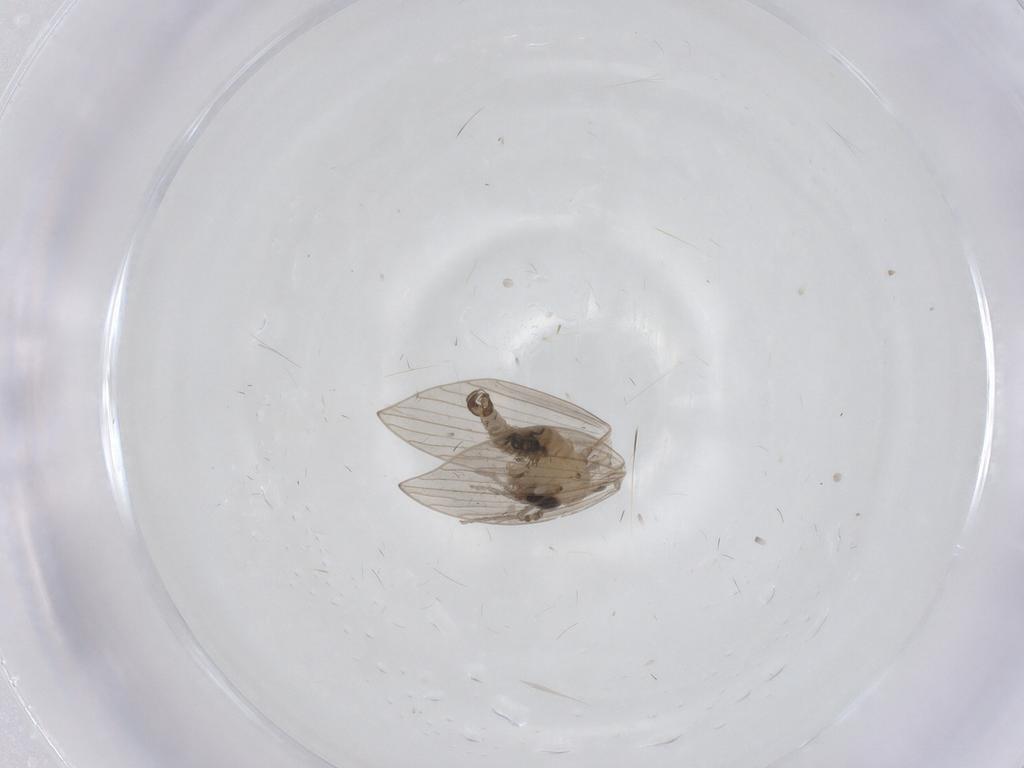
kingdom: Animalia
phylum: Arthropoda
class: Insecta
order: Diptera
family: Psychodidae
